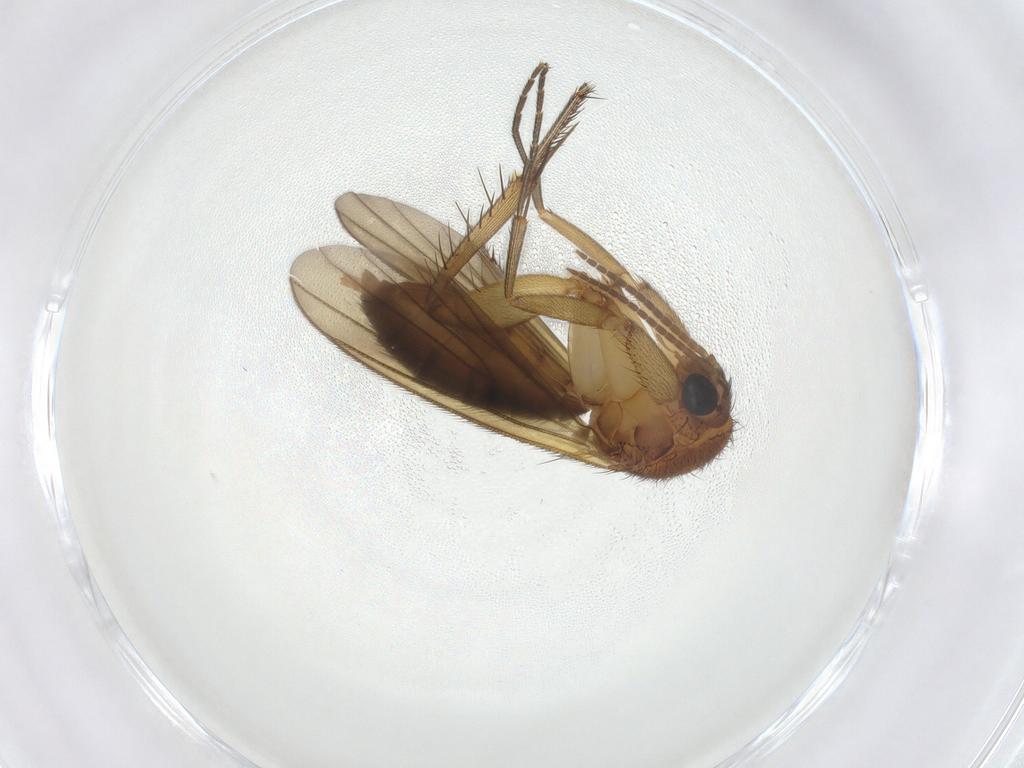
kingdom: Animalia
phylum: Arthropoda
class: Insecta
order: Diptera
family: Mycetophilidae
